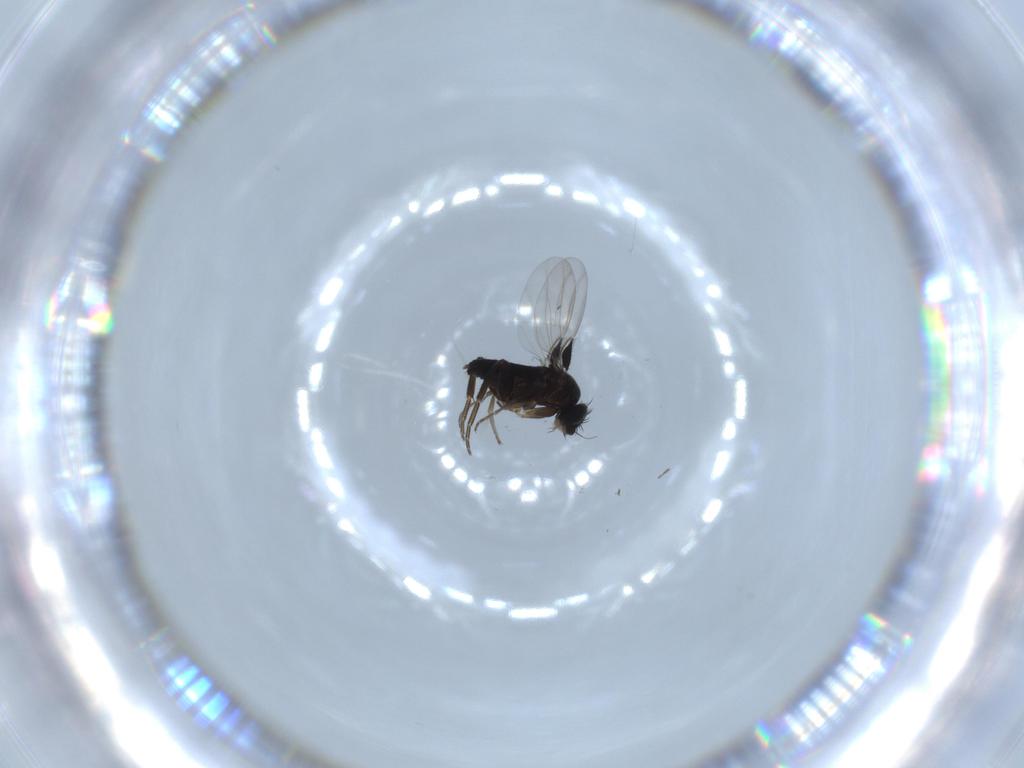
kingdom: Animalia
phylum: Arthropoda
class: Insecta
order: Diptera
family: Phoridae
